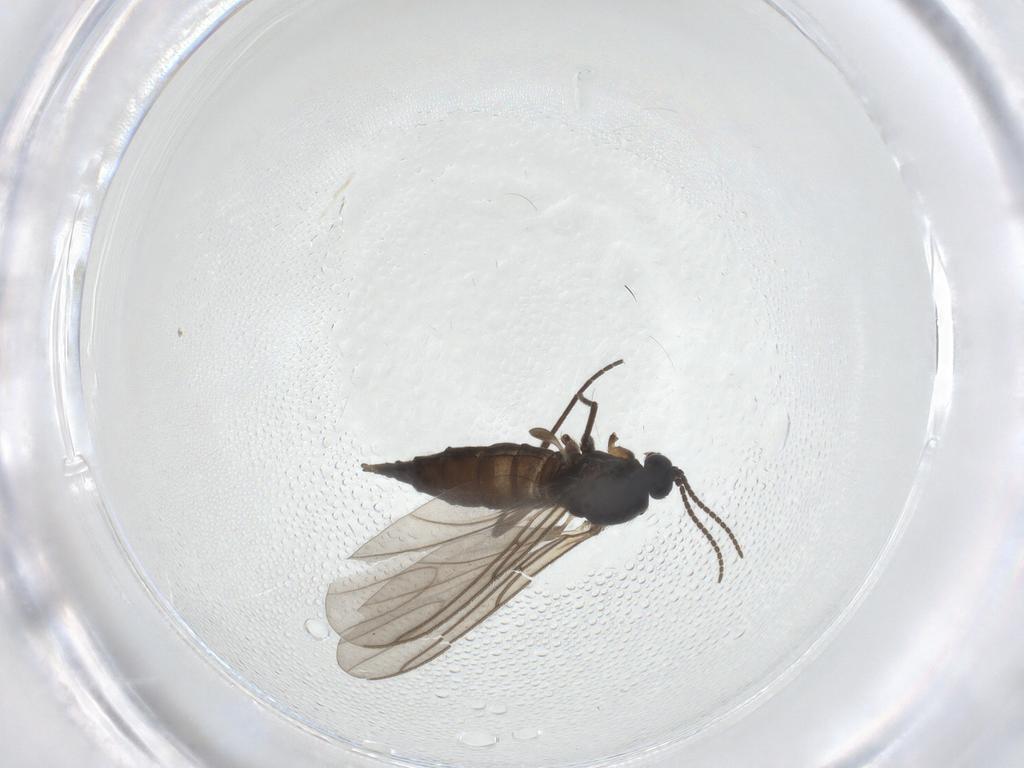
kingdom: Animalia
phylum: Arthropoda
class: Insecta
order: Diptera
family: Sciaridae
